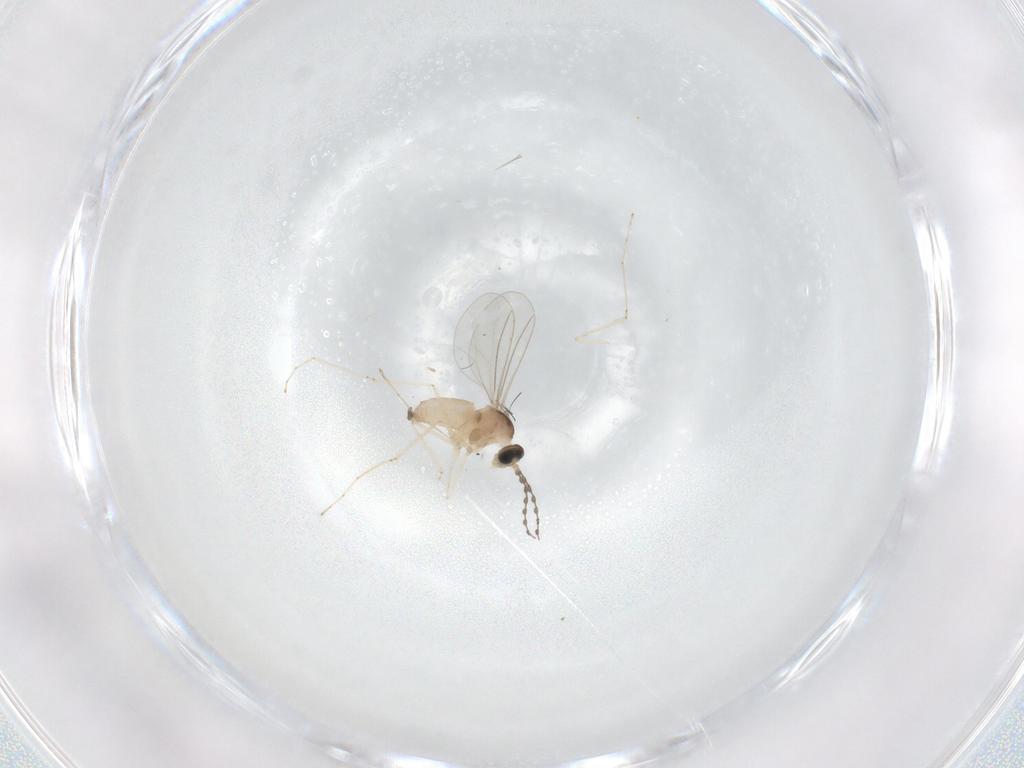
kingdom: Animalia
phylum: Arthropoda
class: Insecta
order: Diptera
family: Cecidomyiidae
